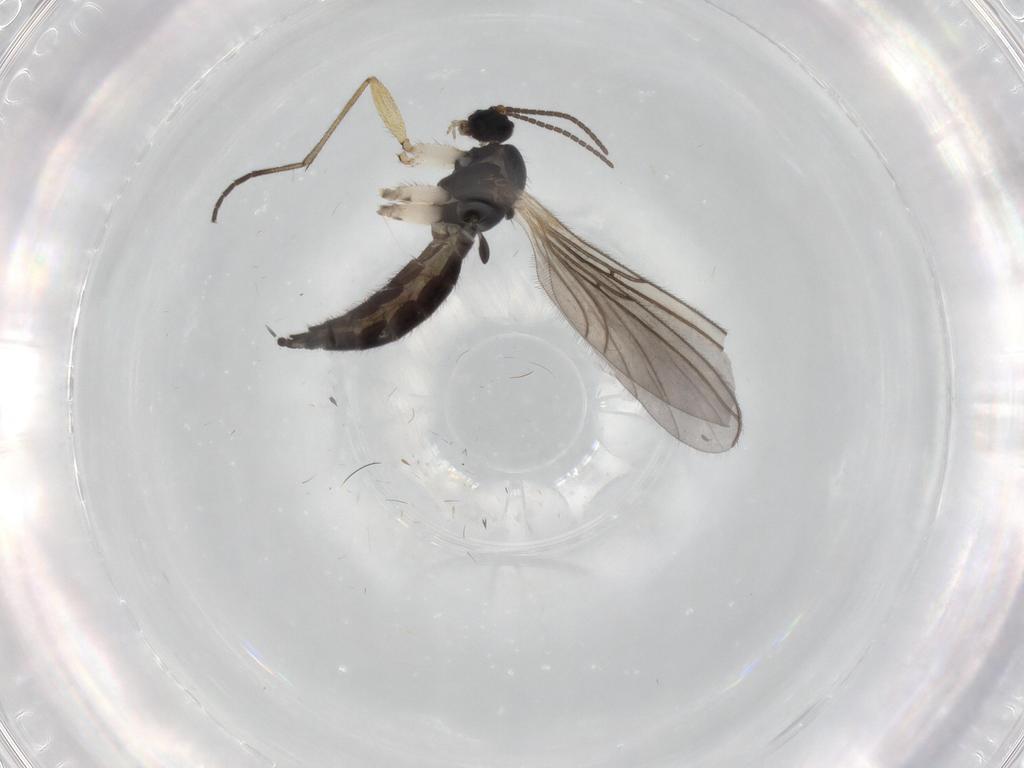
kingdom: Animalia
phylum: Arthropoda
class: Insecta
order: Diptera
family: Sciaridae
